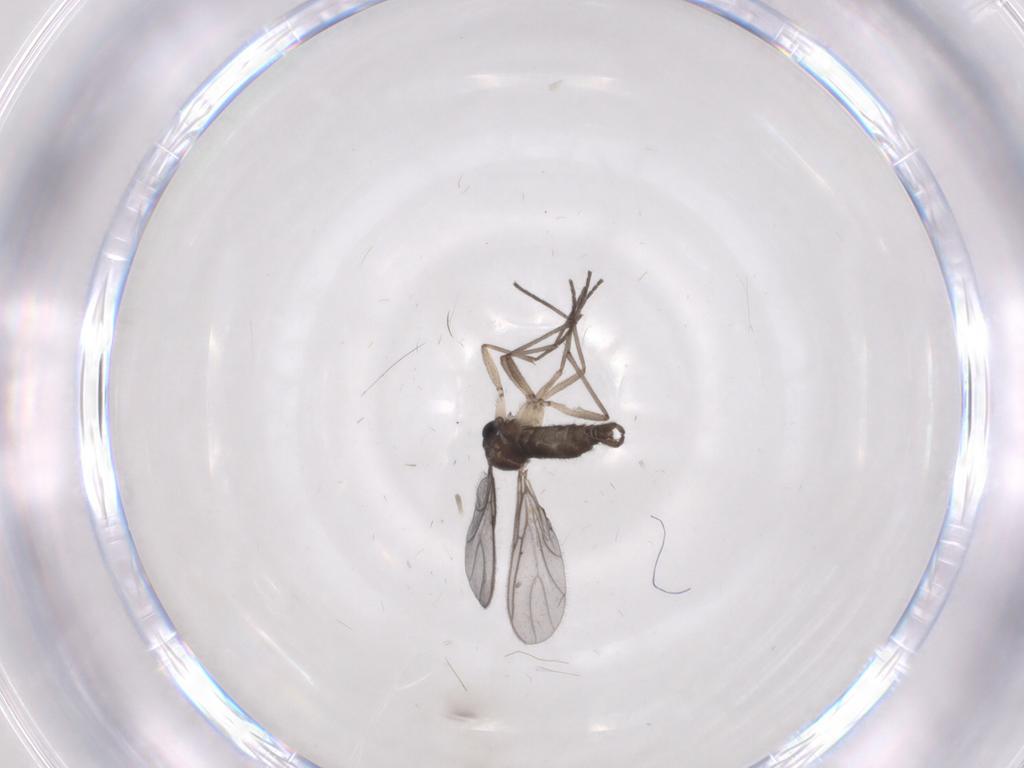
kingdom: Animalia
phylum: Arthropoda
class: Insecta
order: Diptera
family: Sciaridae
